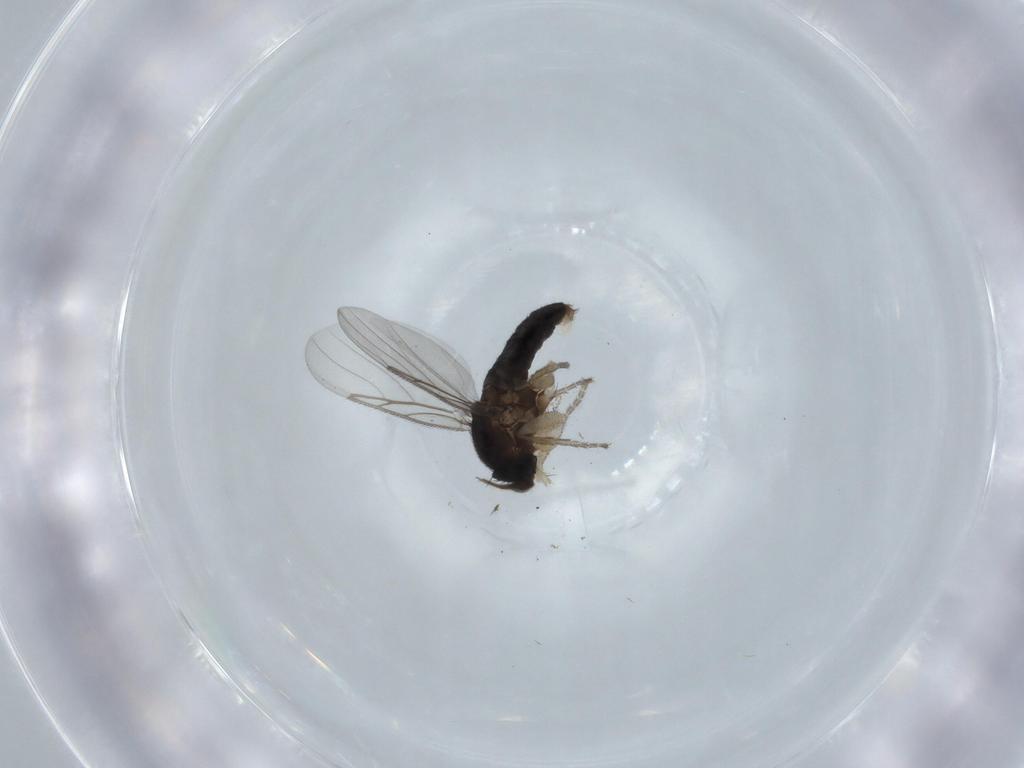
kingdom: Animalia
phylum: Arthropoda
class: Insecta
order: Diptera
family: Phoridae
